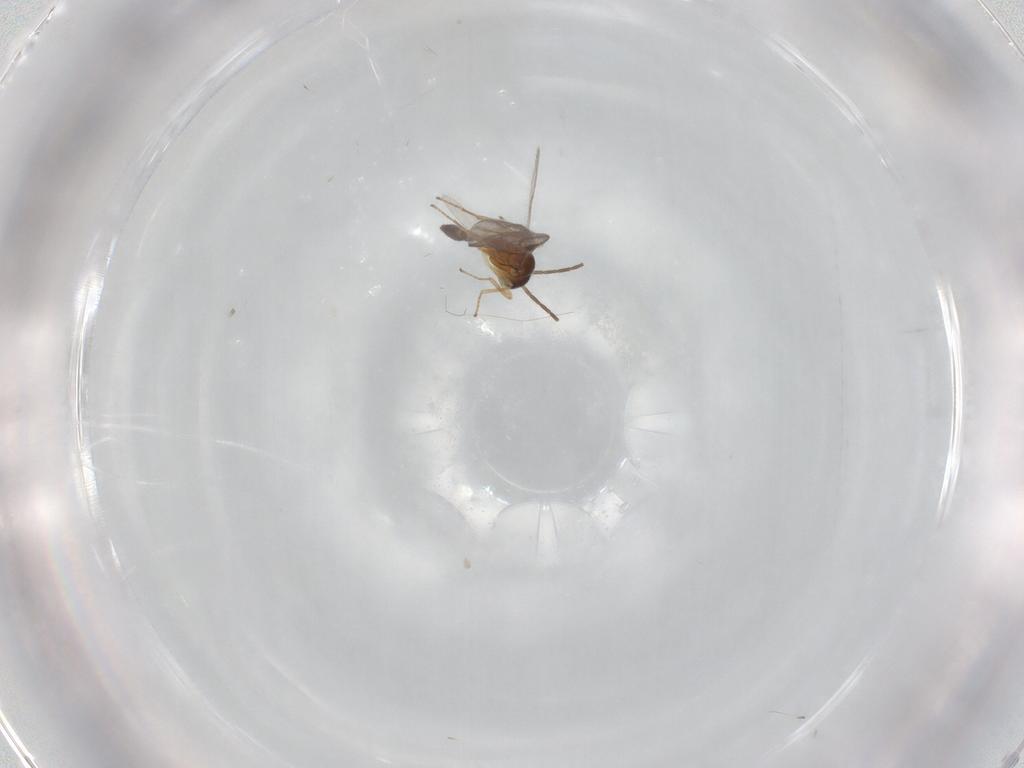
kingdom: Animalia
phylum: Arthropoda
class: Insecta
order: Hymenoptera
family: Braconidae
